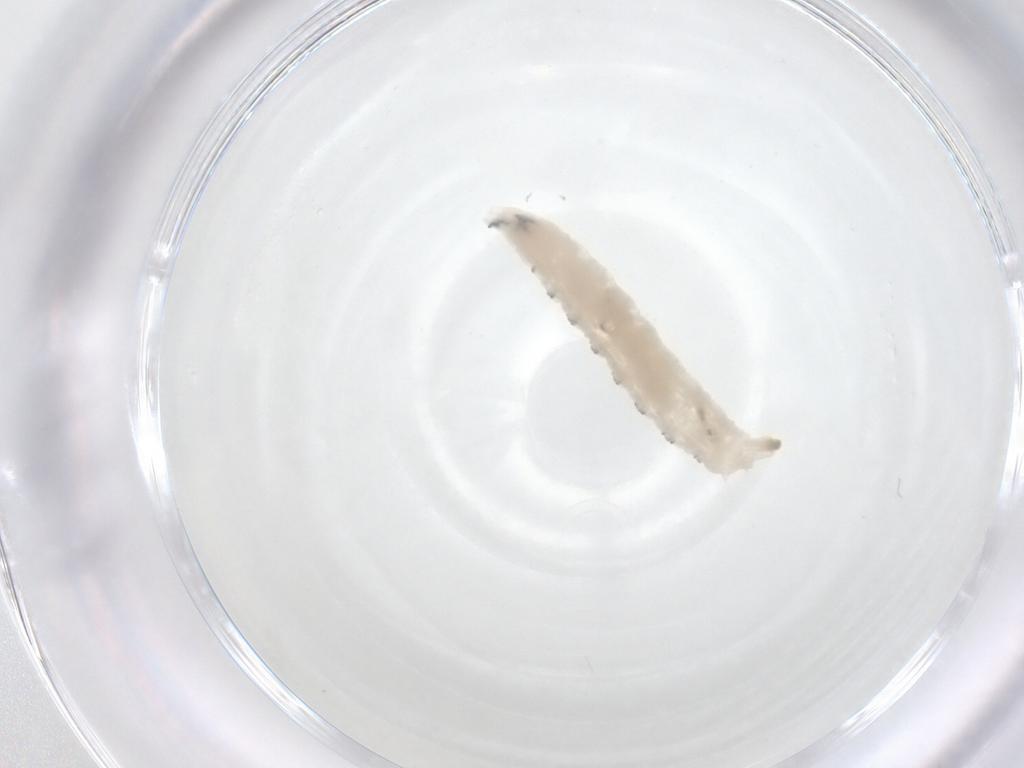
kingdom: Animalia
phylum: Arthropoda
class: Insecta
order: Diptera
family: Drosophilidae
